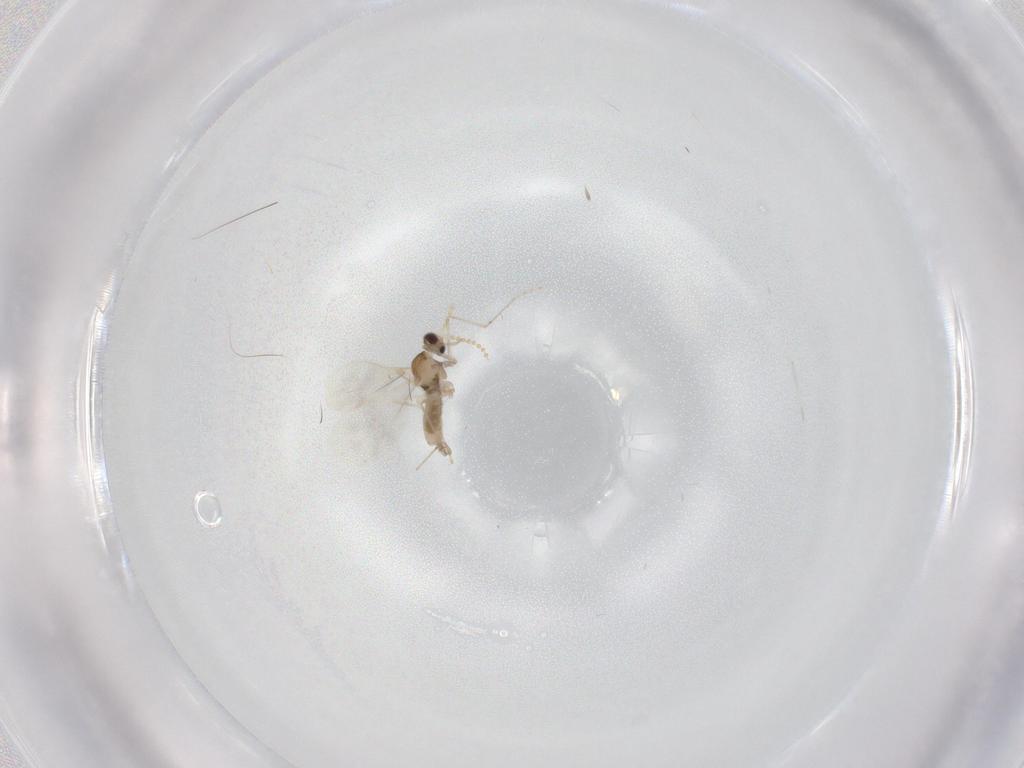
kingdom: Animalia
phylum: Arthropoda
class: Insecta
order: Diptera
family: Cecidomyiidae
